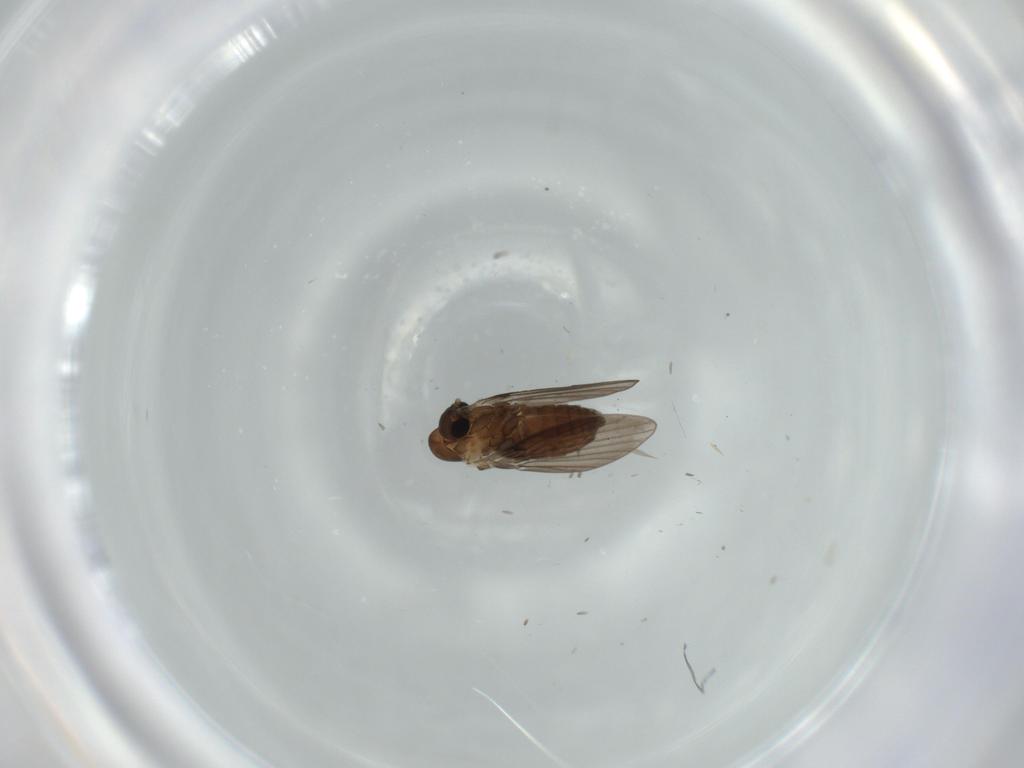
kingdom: Animalia
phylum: Arthropoda
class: Insecta
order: Diptera
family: Psychodidae
